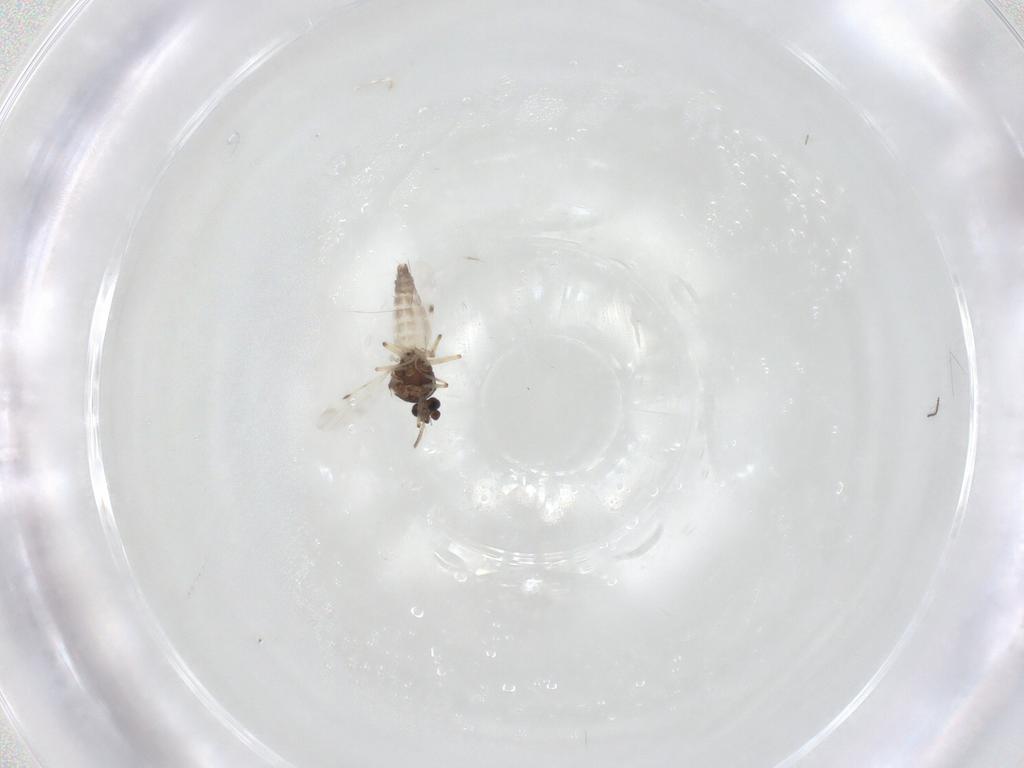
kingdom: Animalia
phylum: Arthropoda
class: Insecta
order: Diptera
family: Ceratopogonidae
